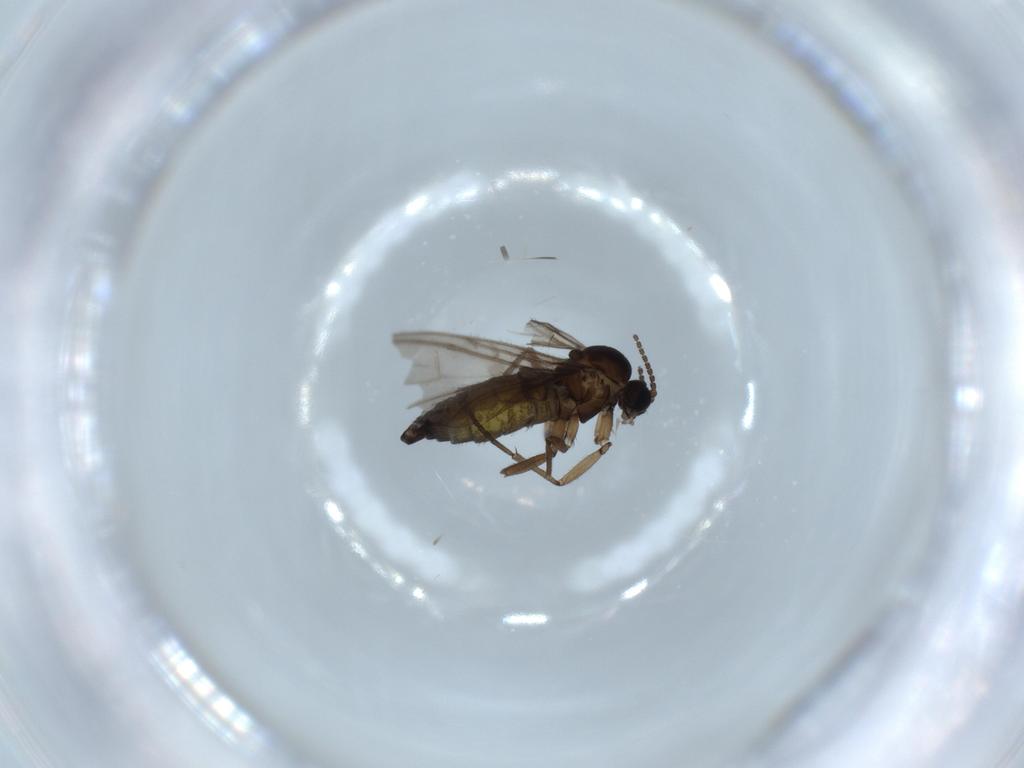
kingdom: Animalia
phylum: Arthropoda
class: Insecta
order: Diptera
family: Sciaridae
